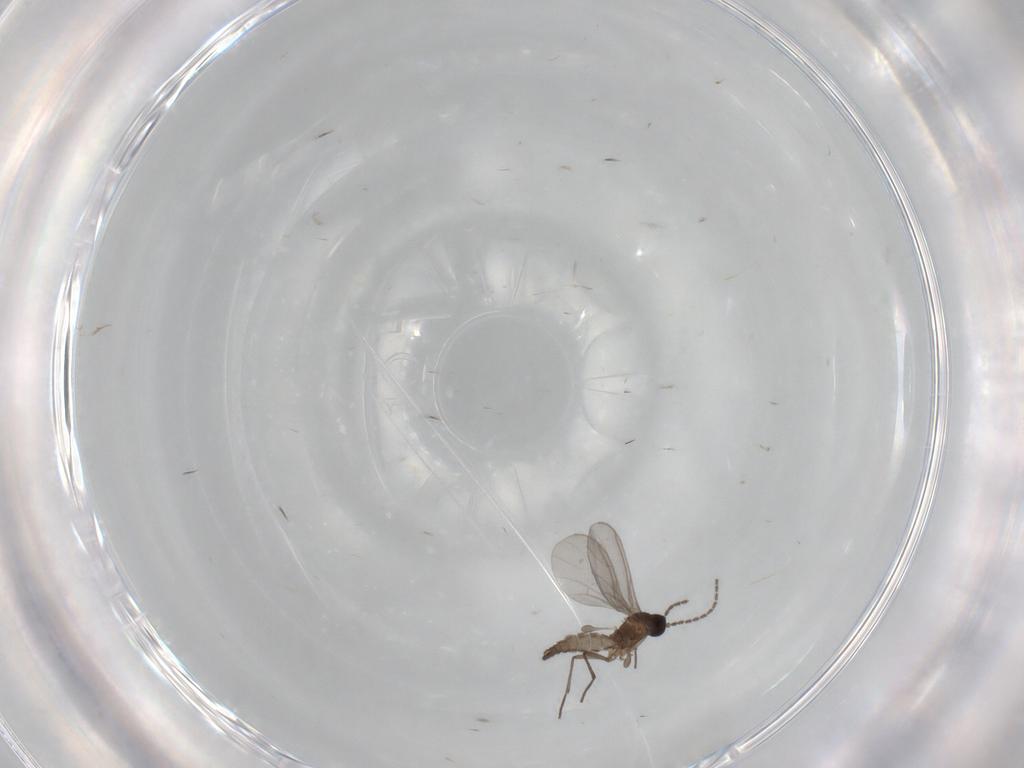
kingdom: Animalia
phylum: Arthropoda
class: Insecta
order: Diptera
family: Sciaridae
